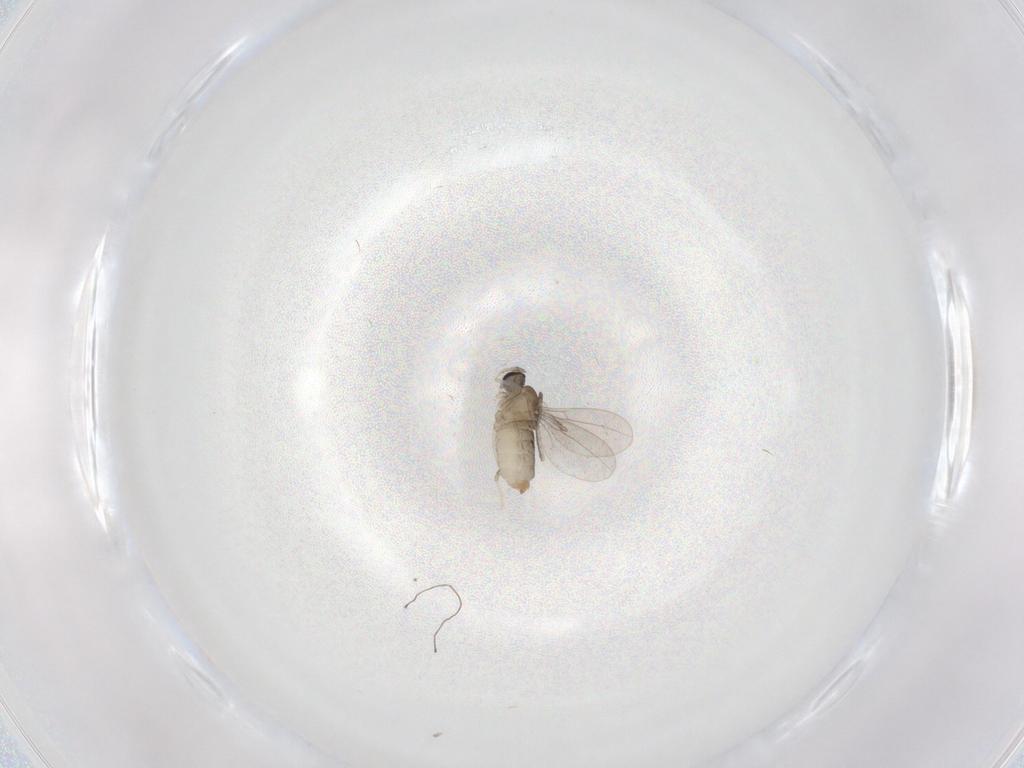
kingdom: Animalia
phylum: Arthropoda
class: Insecta
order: Diptera
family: Cecidomyiidae
